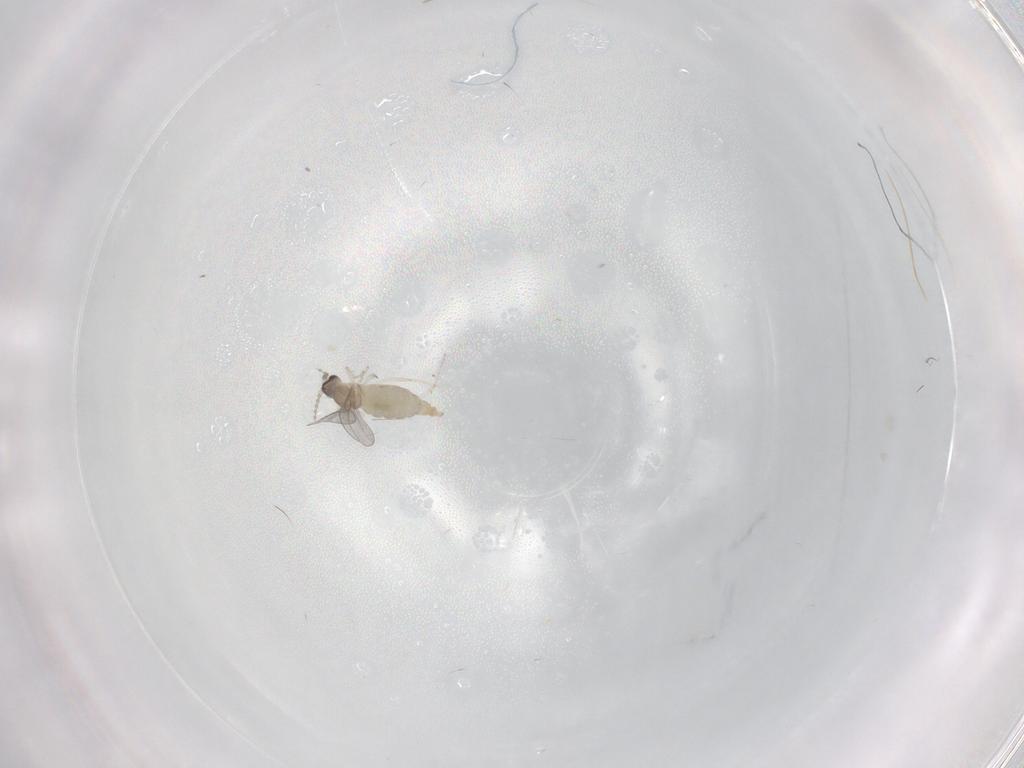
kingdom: Animalia
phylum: Arthropoda
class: Insecta
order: Diptera
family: Cecidomyiidae
